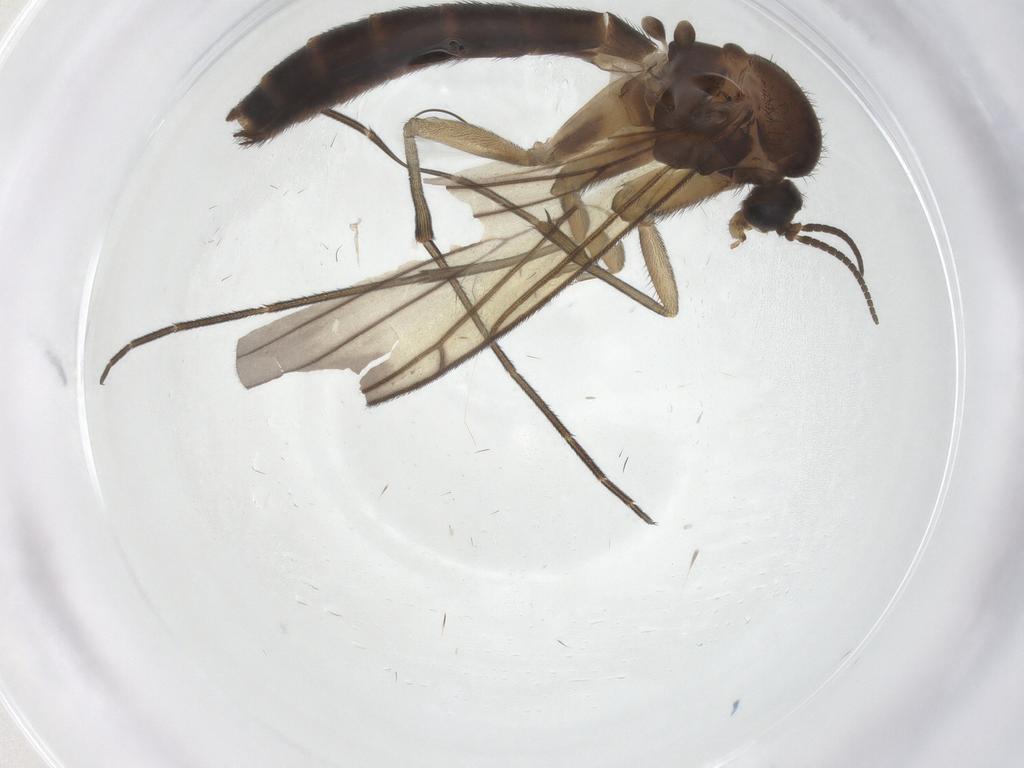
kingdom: Animalia
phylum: Arthropoda
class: Insecta
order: Diptera
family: Keroplatidae
